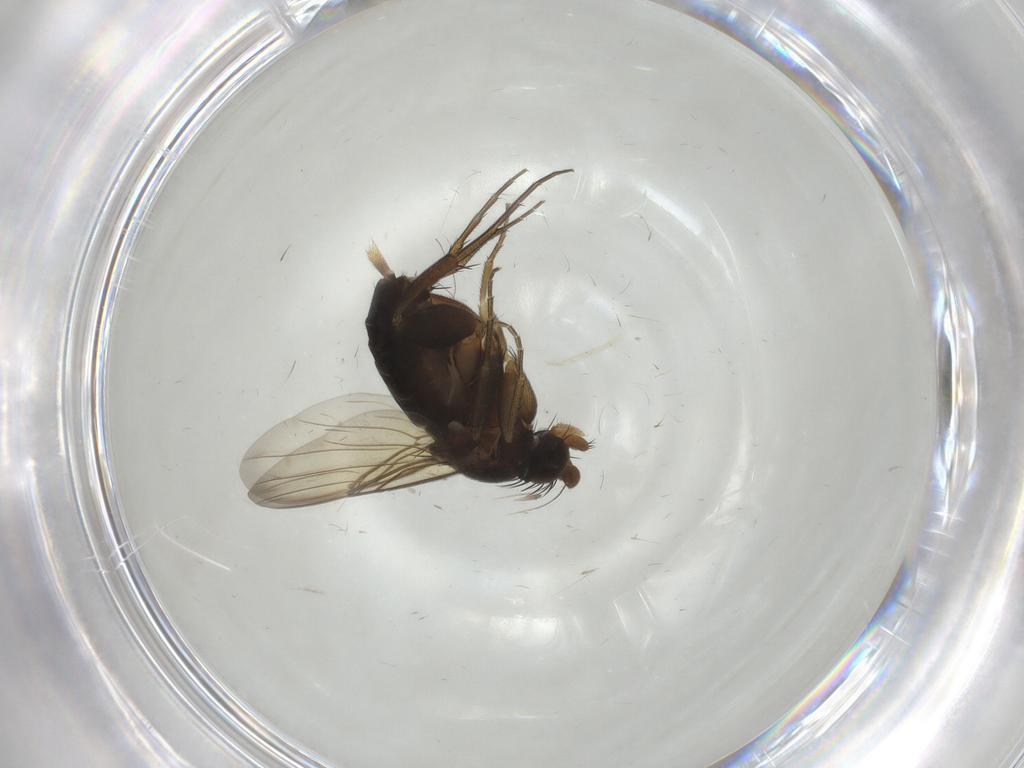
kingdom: Animalia
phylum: Arthropoda
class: Insecta
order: Diptera
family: Phoridae
